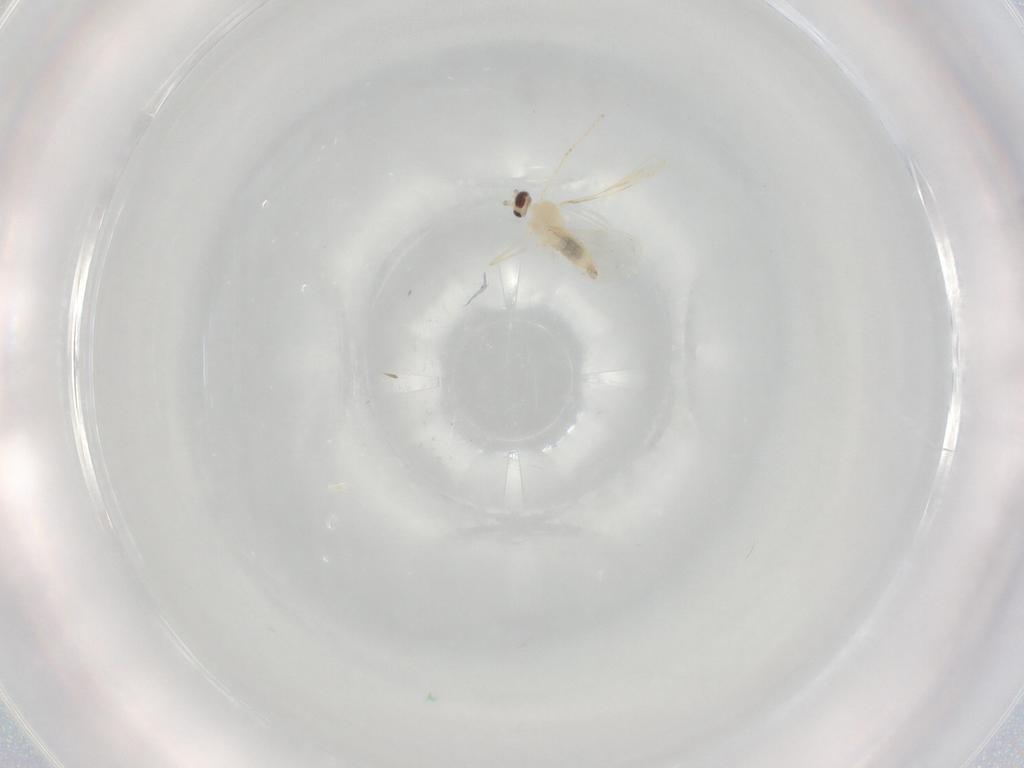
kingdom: Animalia
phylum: Arthropoda
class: Insecta
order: Diptera
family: Cecidomyiidae
